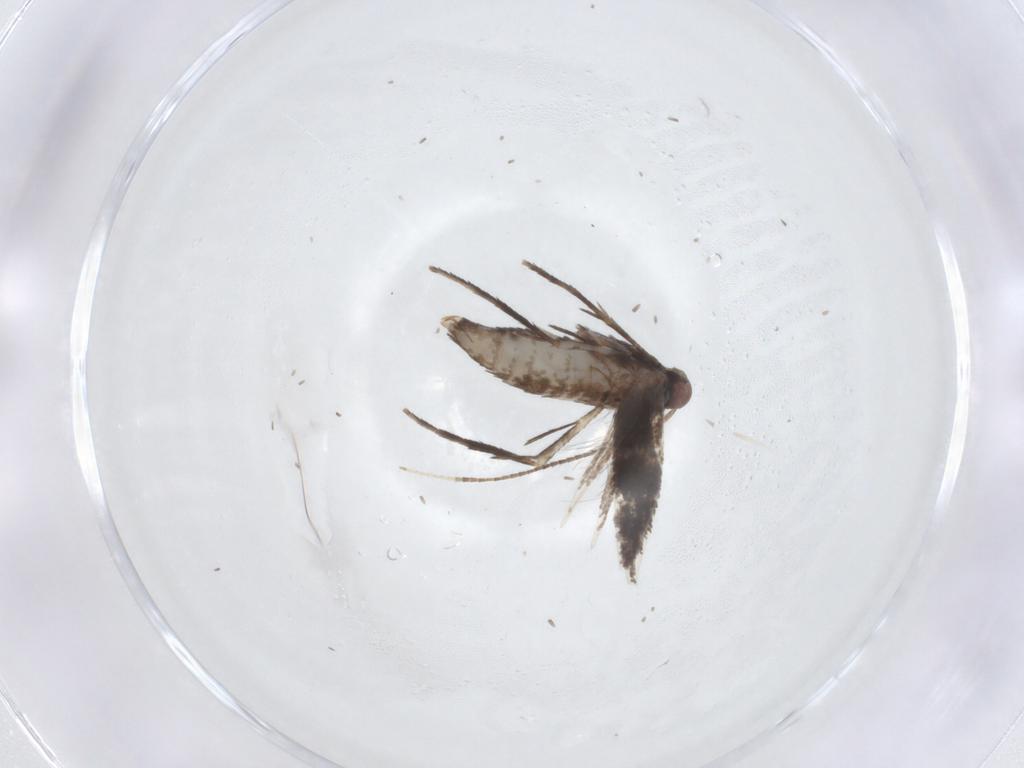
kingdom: Animalia
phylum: Arthropoda
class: Insecta
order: Lepidoptera
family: Gracillariidae
